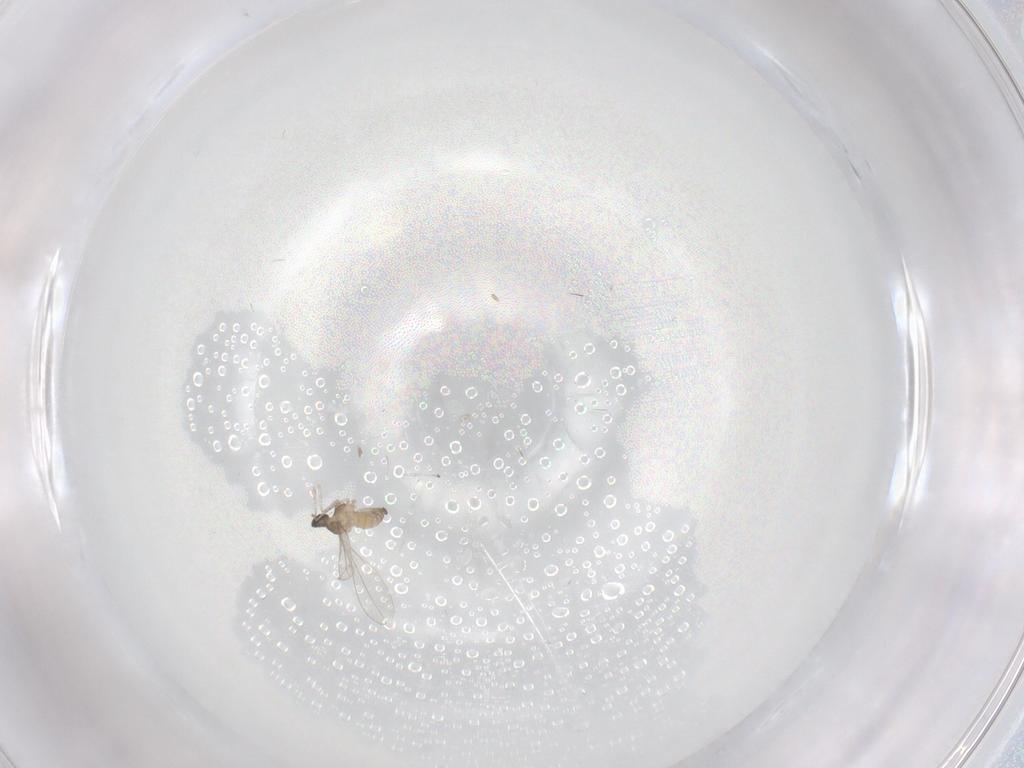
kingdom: Animalia
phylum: Arthropoda
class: Insecta
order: Diptera
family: Cecidomyiidae
